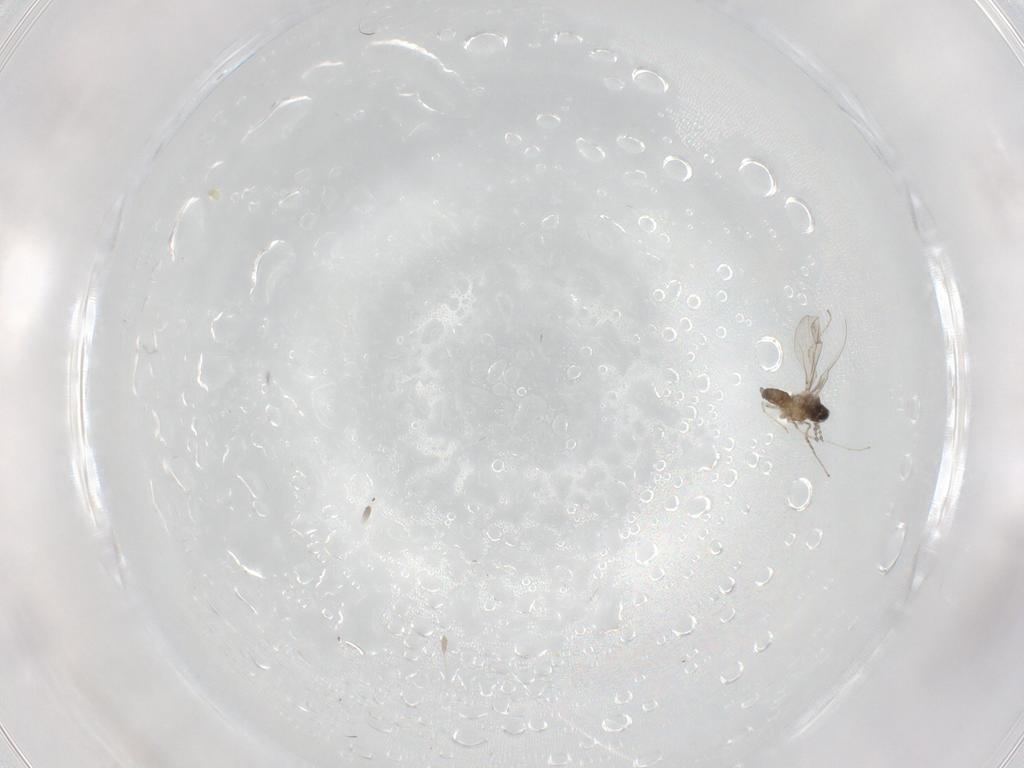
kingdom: Animalia
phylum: Arthropoda
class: Insecta
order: Diptera
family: Cecidomyiidae
